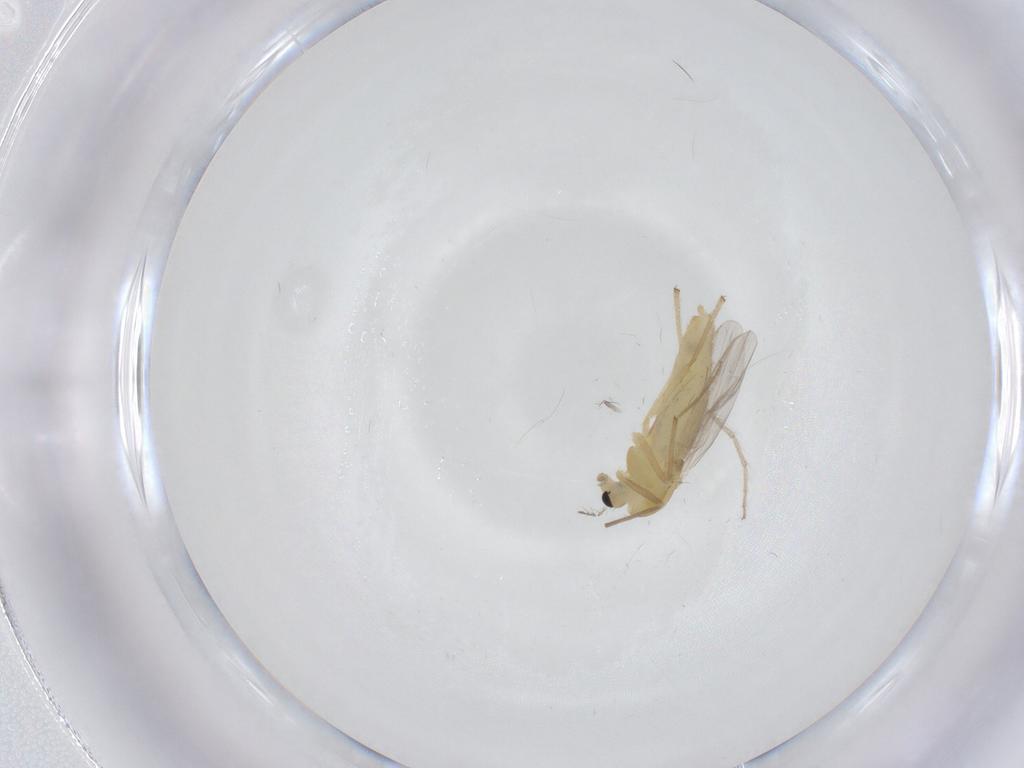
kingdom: Animalia
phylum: Arthropoda
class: Insecta
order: Diptera
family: Chironomidae
